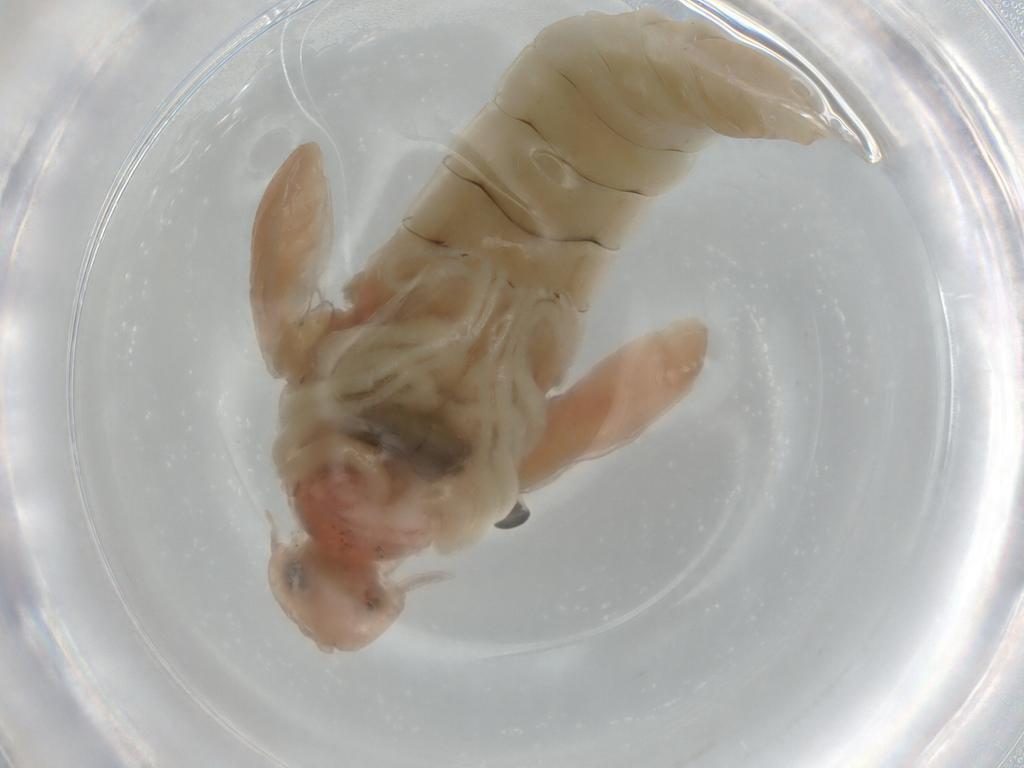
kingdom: Animalia
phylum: Arthropoda
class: Insecta
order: Diptera
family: Chironomidae
